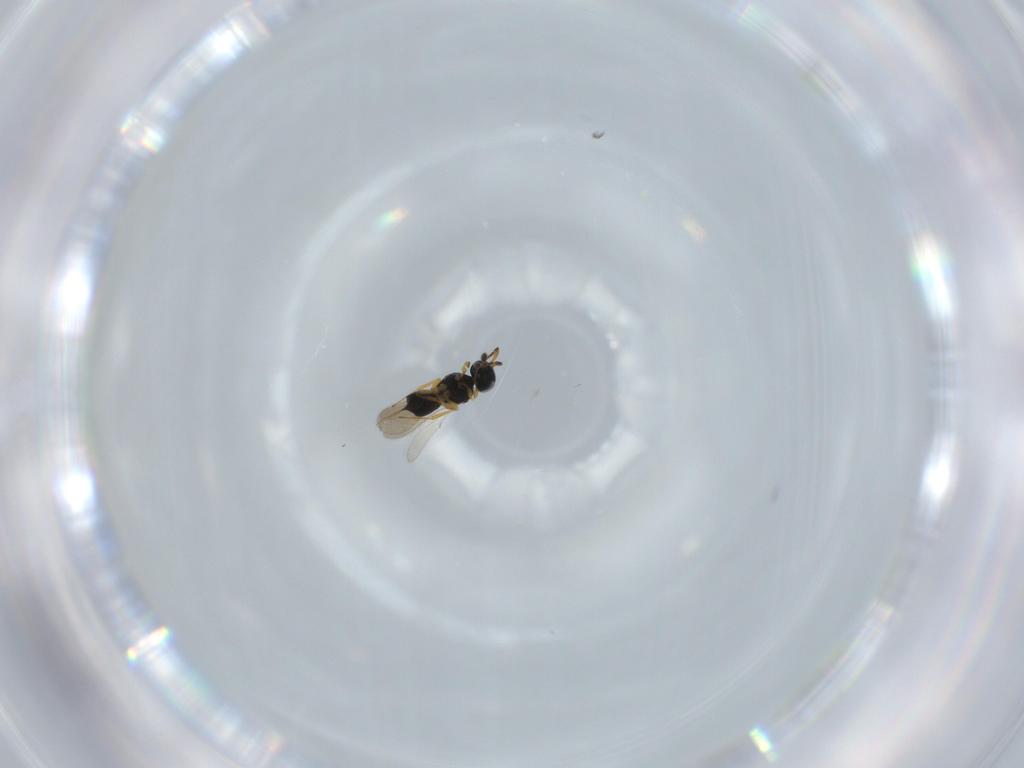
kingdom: Animalia
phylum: Arthropoda
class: Insecta
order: Hymenoptera
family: Scelionidae
